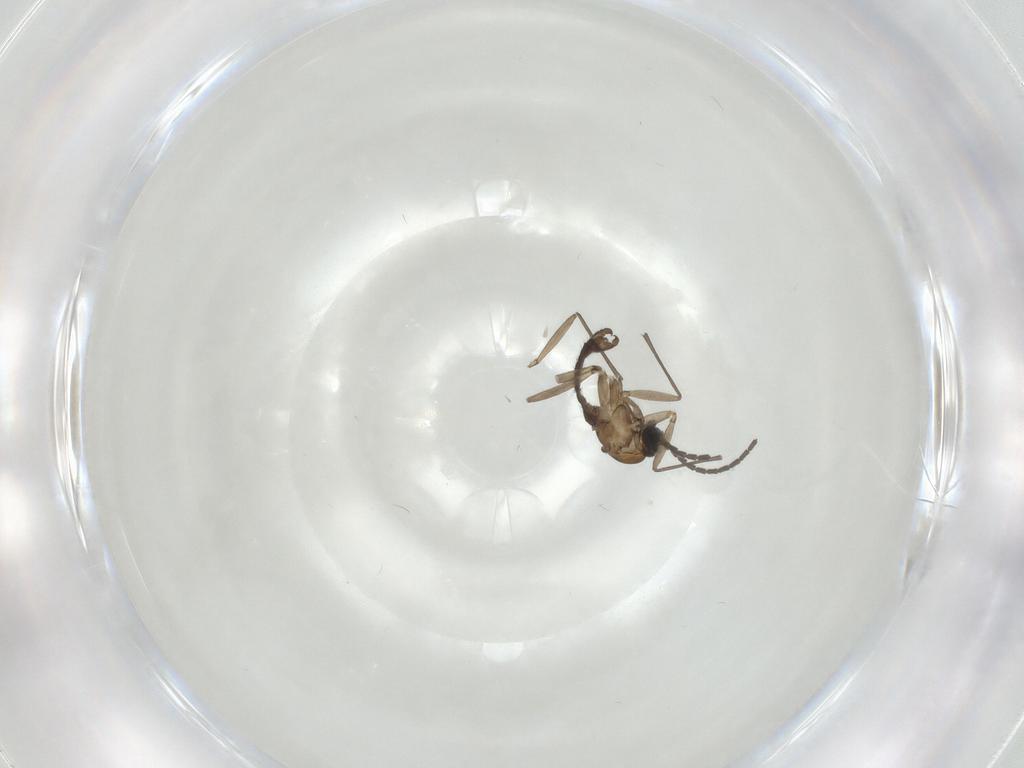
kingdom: Animalia
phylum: Arthropoda
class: Insecta
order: Diptera
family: Sciaridae
